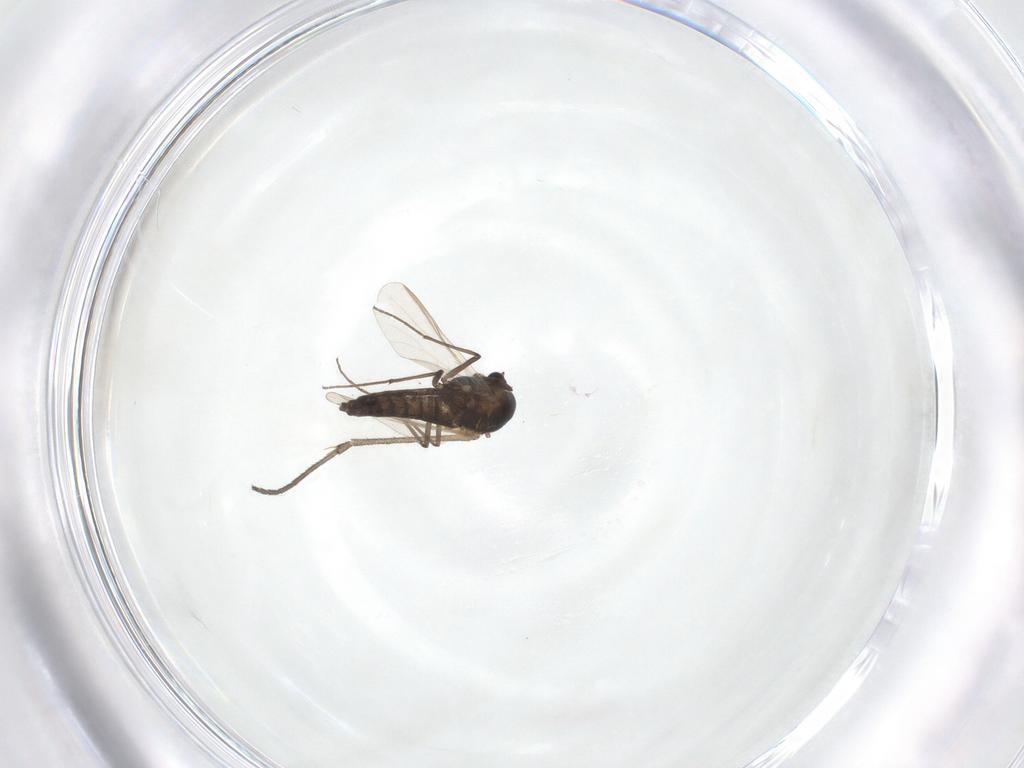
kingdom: Animalia
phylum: Arthropoda
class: Insecta
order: Diptera
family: Chironomidae
